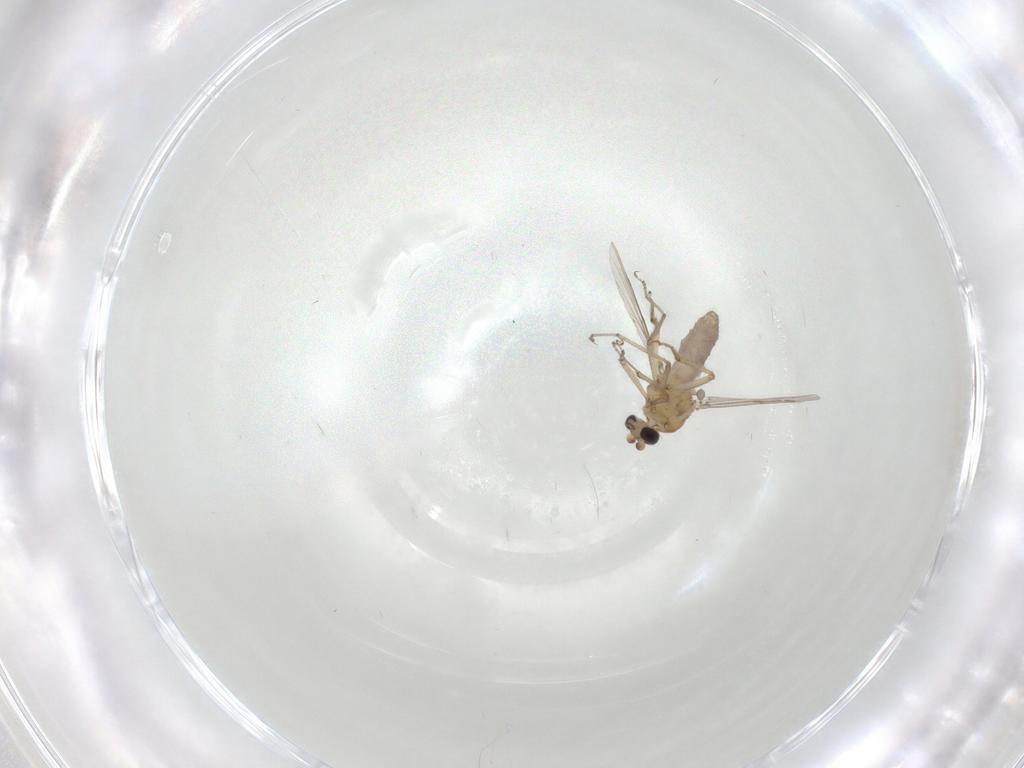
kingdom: Animalia
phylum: Arthropoda
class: Insecta
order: Diptera
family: Ceratopogonidae
